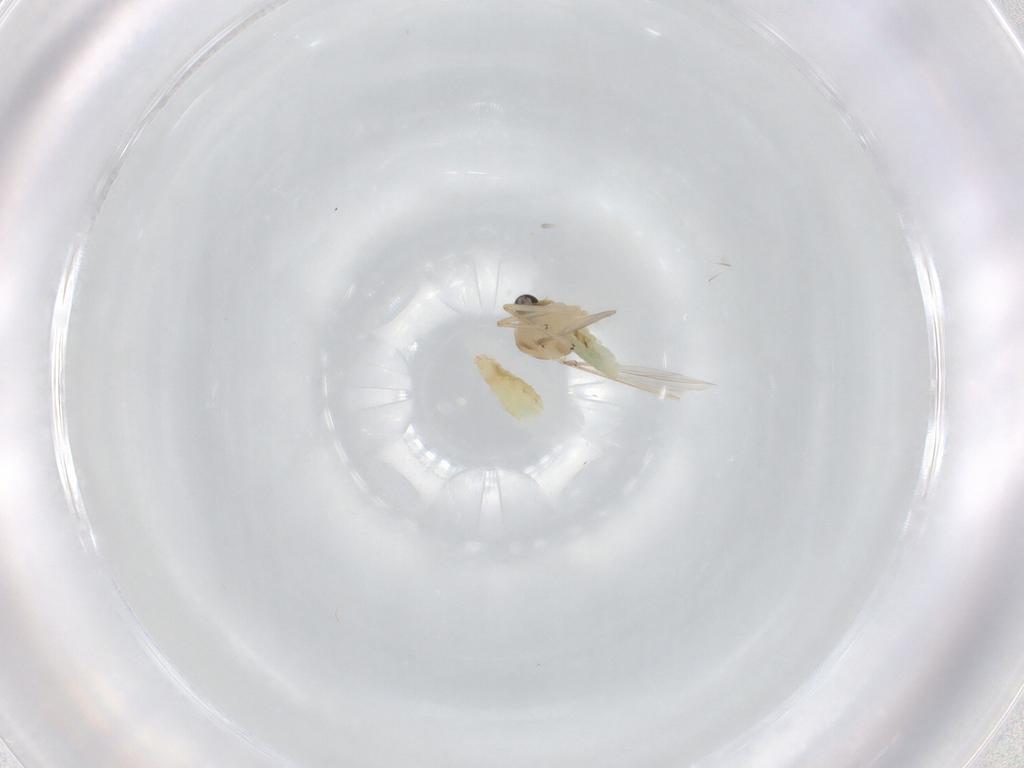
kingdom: Animalia
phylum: Arthropoda
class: Insecta
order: Diptera
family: Chironomidae
